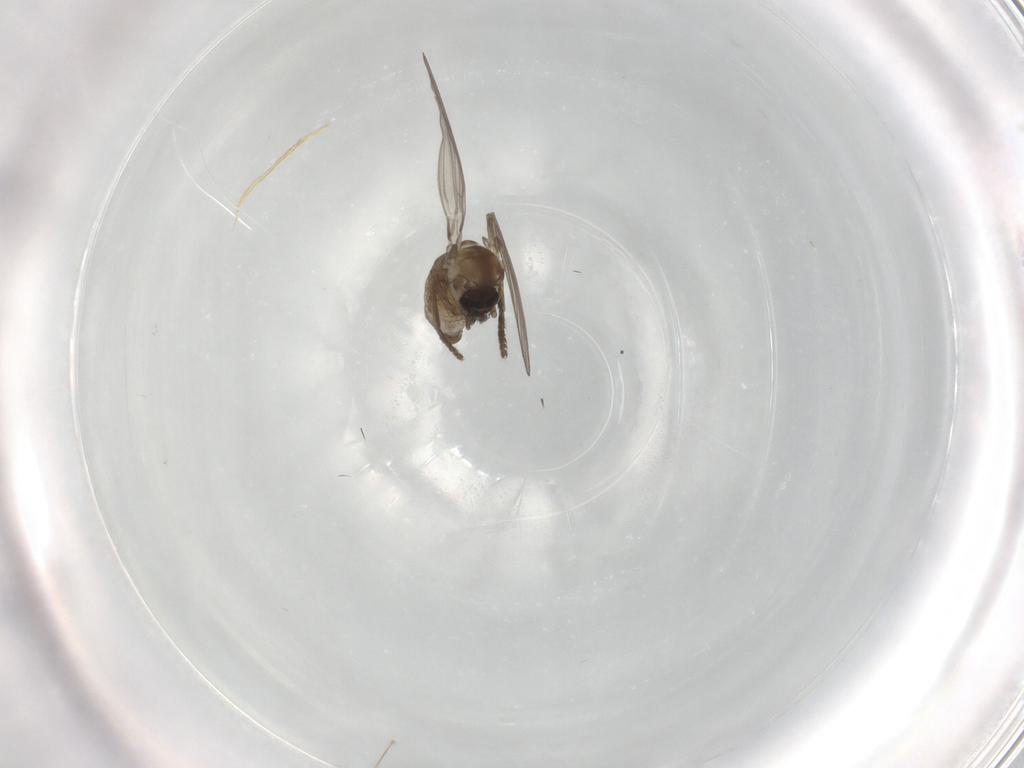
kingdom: Animalia
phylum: Arthropoda
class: Insecta
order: Diptera
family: Psychodidae
